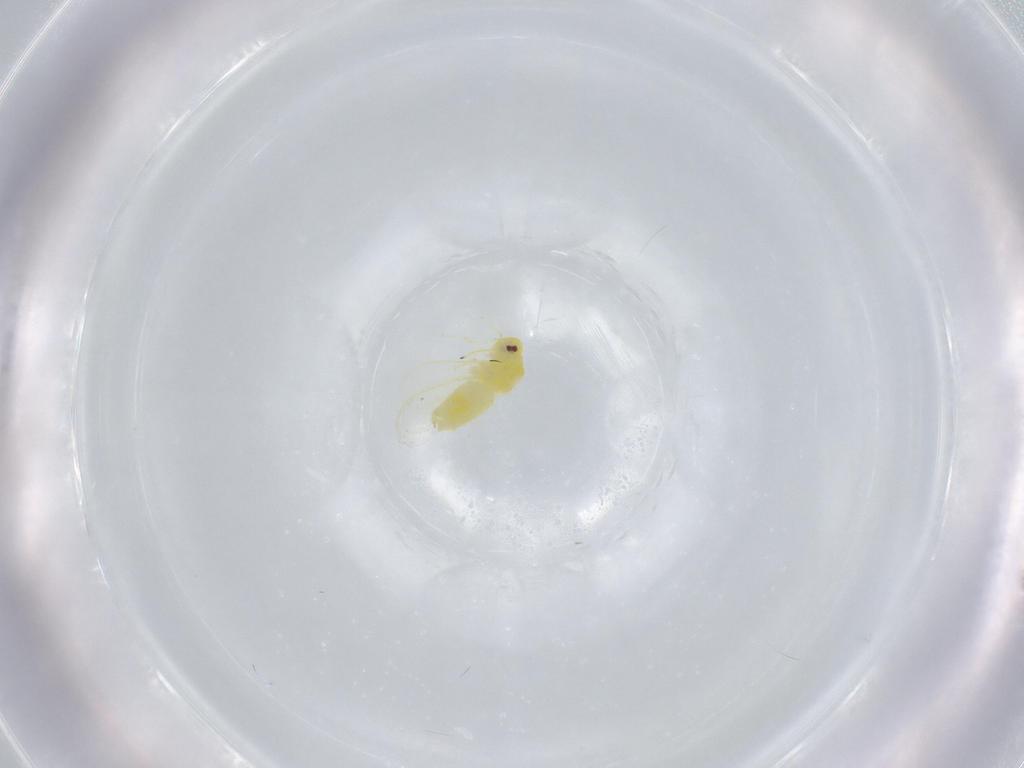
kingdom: Animalia
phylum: Arthropoda
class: Insecta
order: Hemiptera
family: Aleyrodidae
